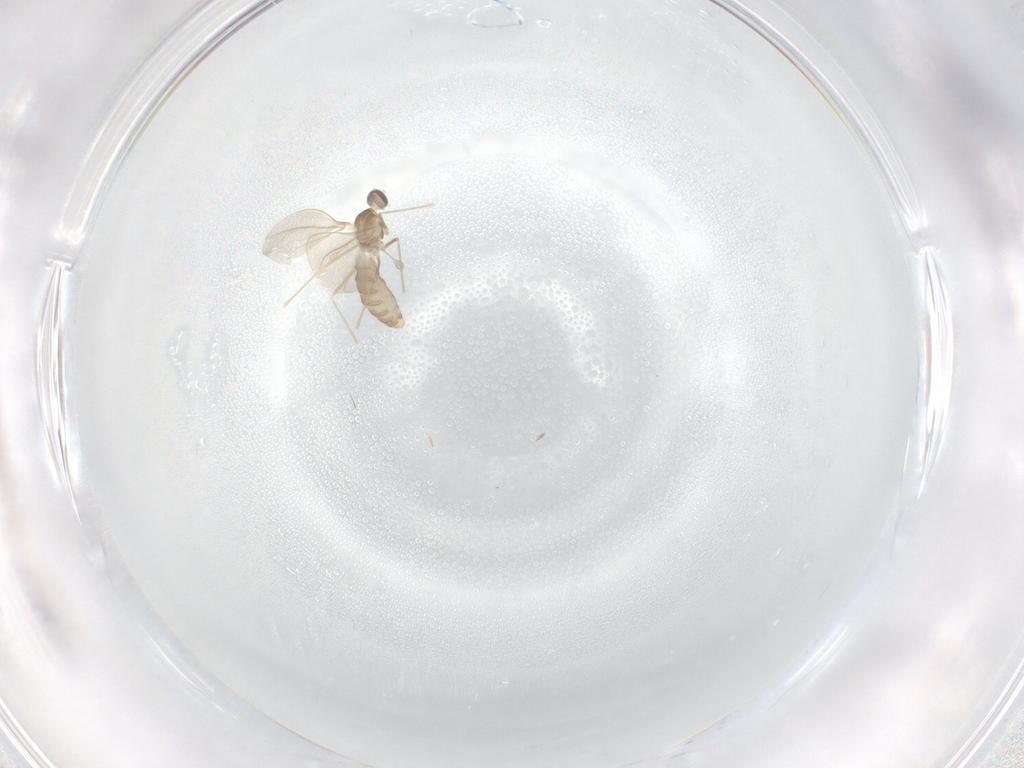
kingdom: Animalia
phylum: Arthropoda
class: Insecta
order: Diptera
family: Cecidomyiidae
